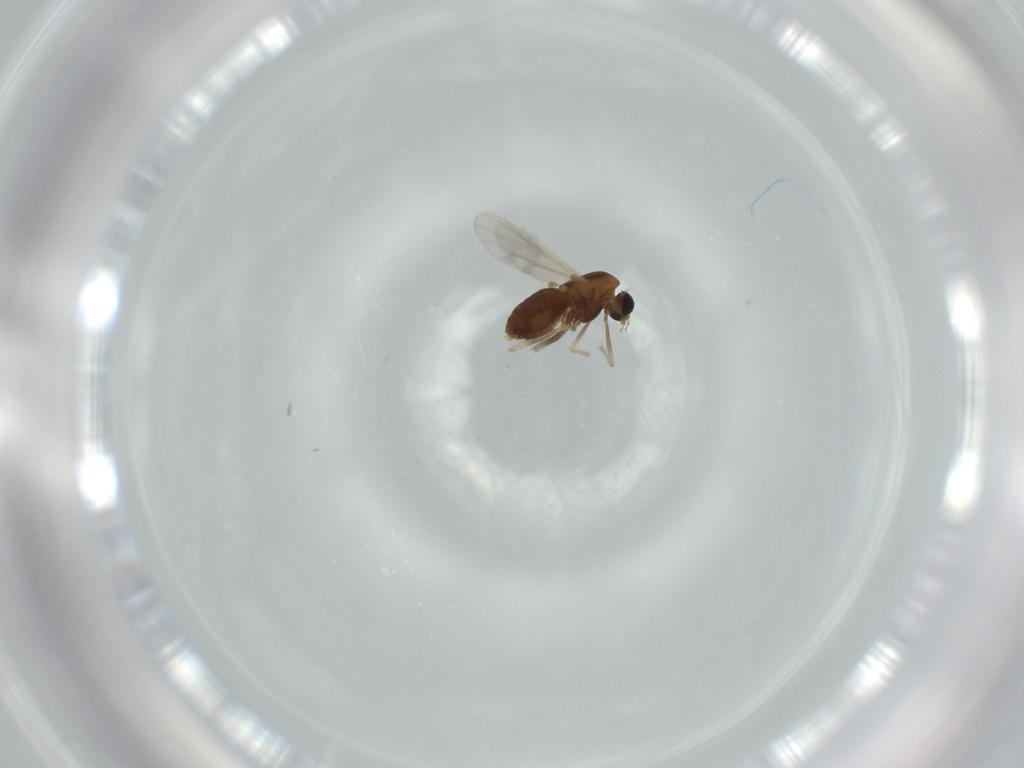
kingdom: Animalia
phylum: Arthropoda
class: Insecta
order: Diptera
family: Chironomidae
